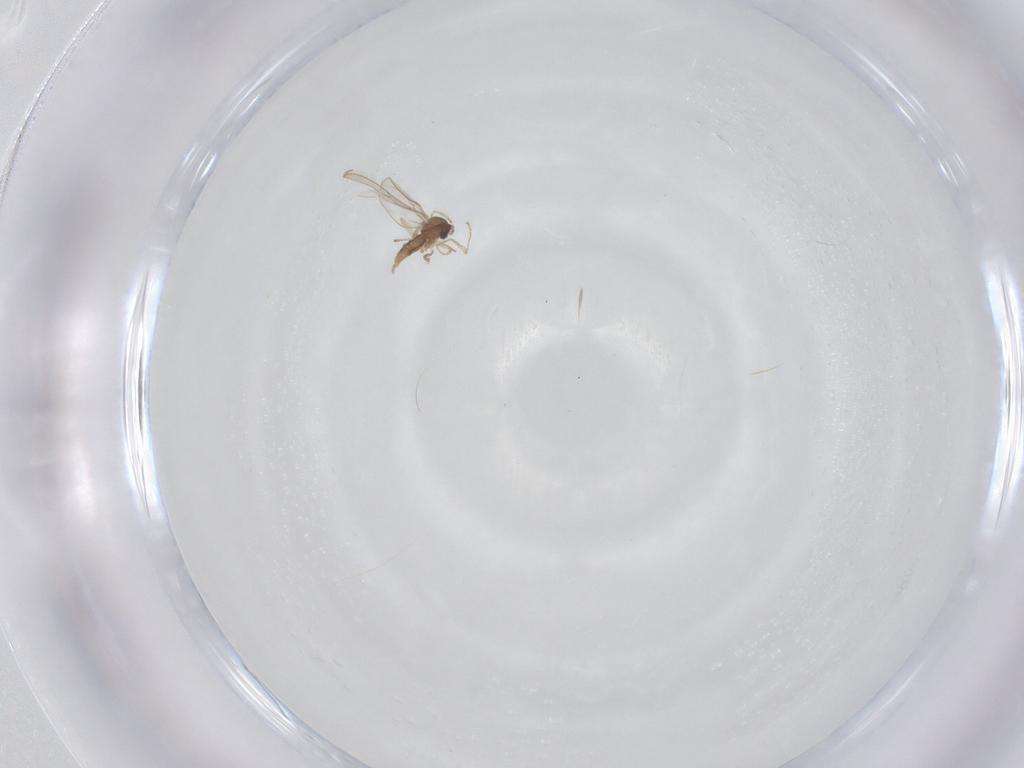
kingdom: Animalia
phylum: Arthropoda
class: Insecta
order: Diptera
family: Cecidomyiidae
